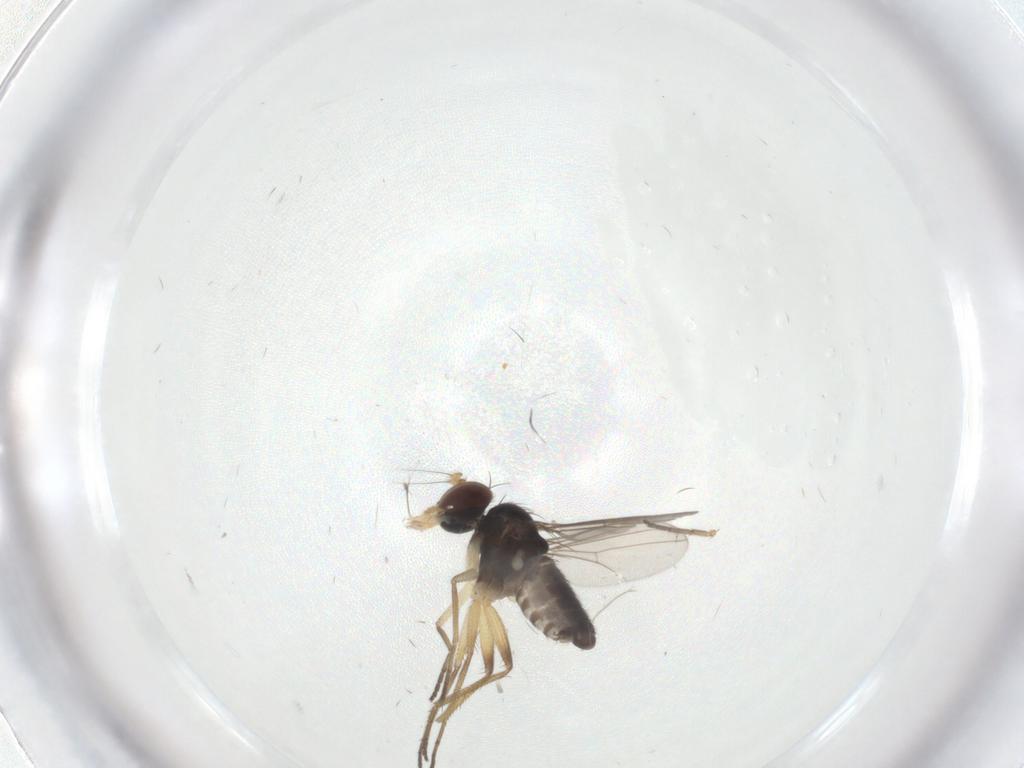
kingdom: Animalia
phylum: Arthropoda
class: Insecta
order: Diptera
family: Dolichopodidae
